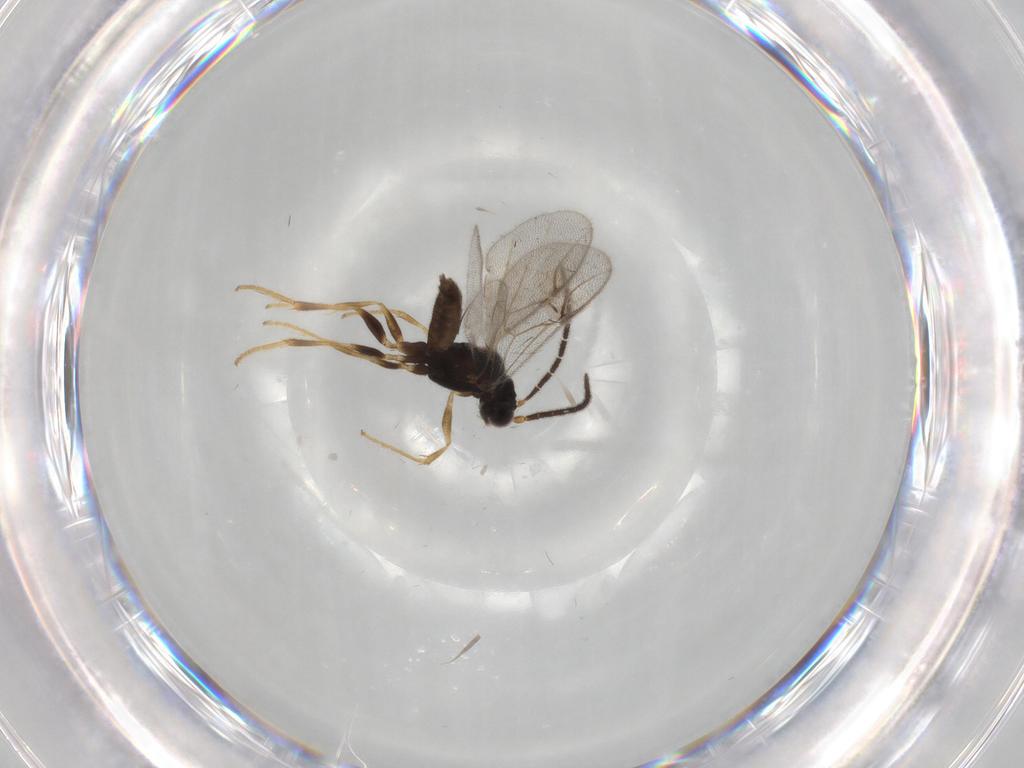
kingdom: Animalia
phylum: Arthropoda
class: Insecta
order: Hymenoptera
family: Dryinidae
